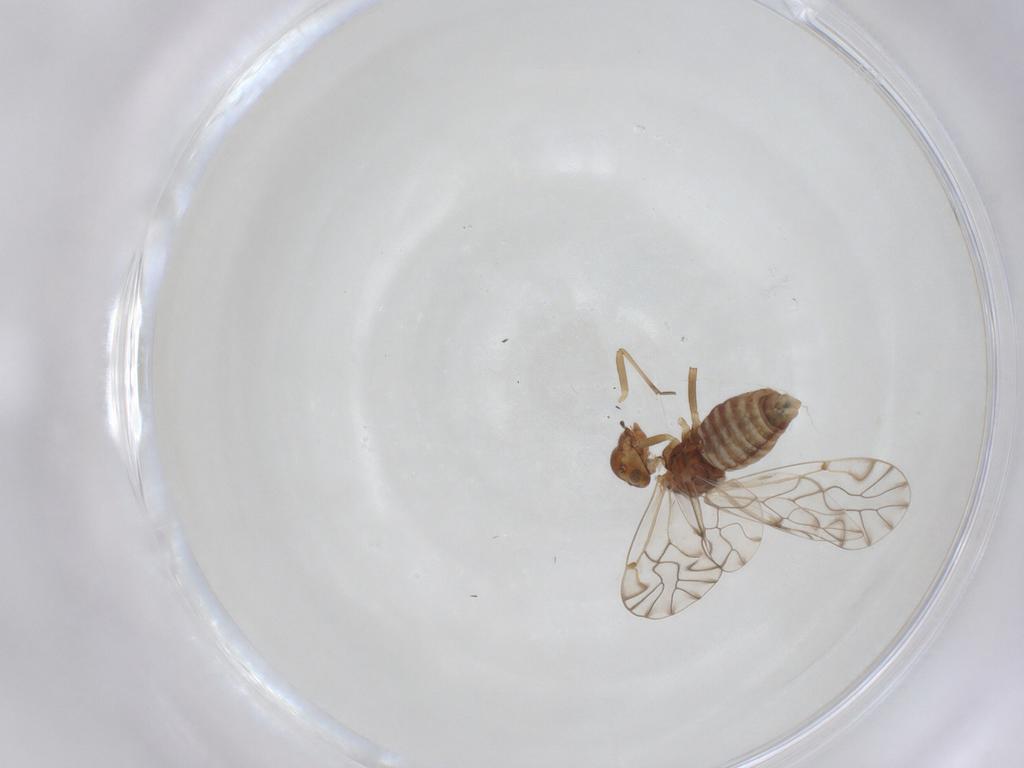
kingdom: Animalia
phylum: Arthropoda
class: Insecta
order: Psocodea
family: Lachesillidae
